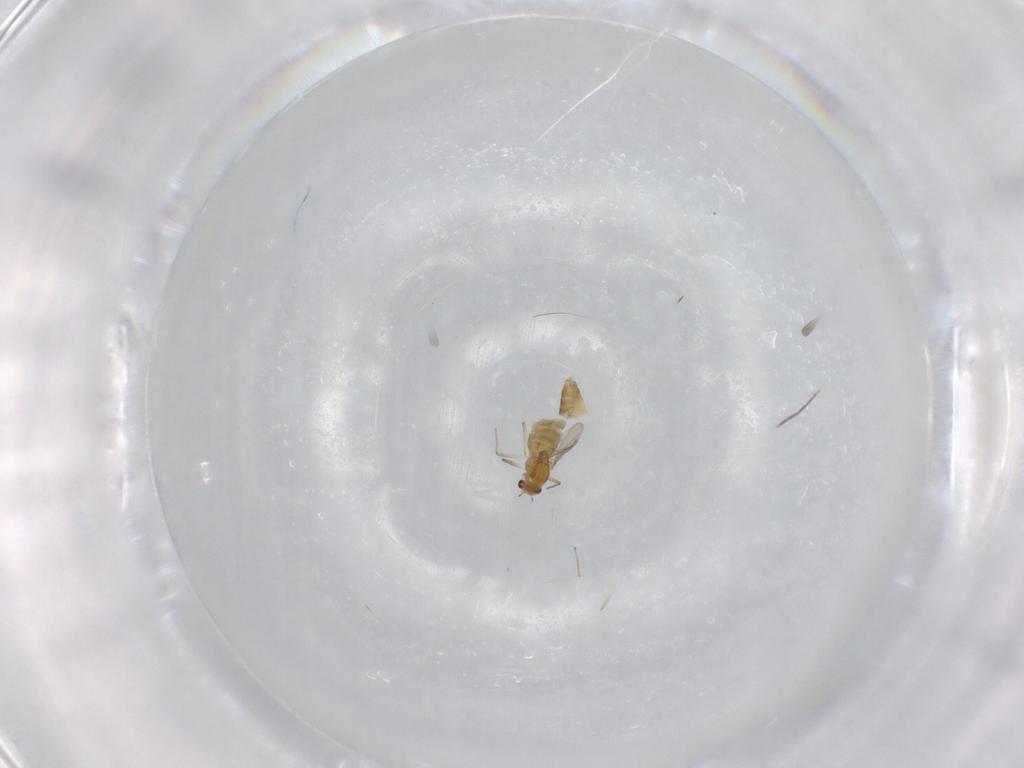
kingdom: Animalia
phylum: Arthropoda
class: Insecta
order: Diptera
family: Chironomidae
